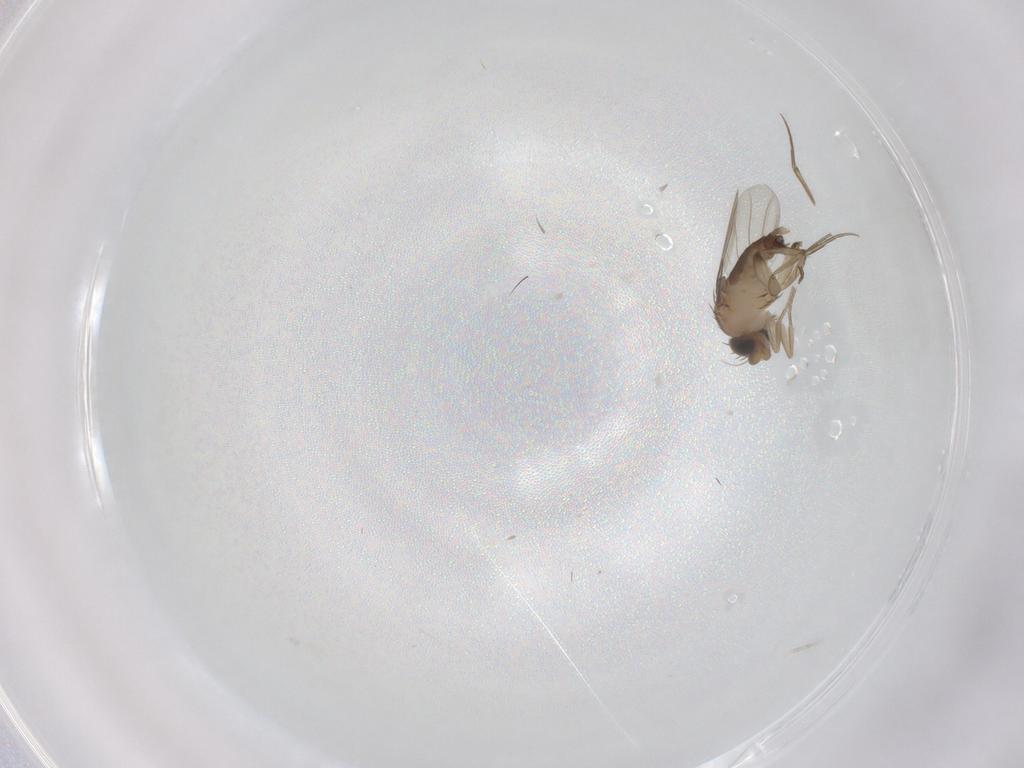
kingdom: Animalia
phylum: Arthropoda
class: Insecta
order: Diptera
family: Phoridae
